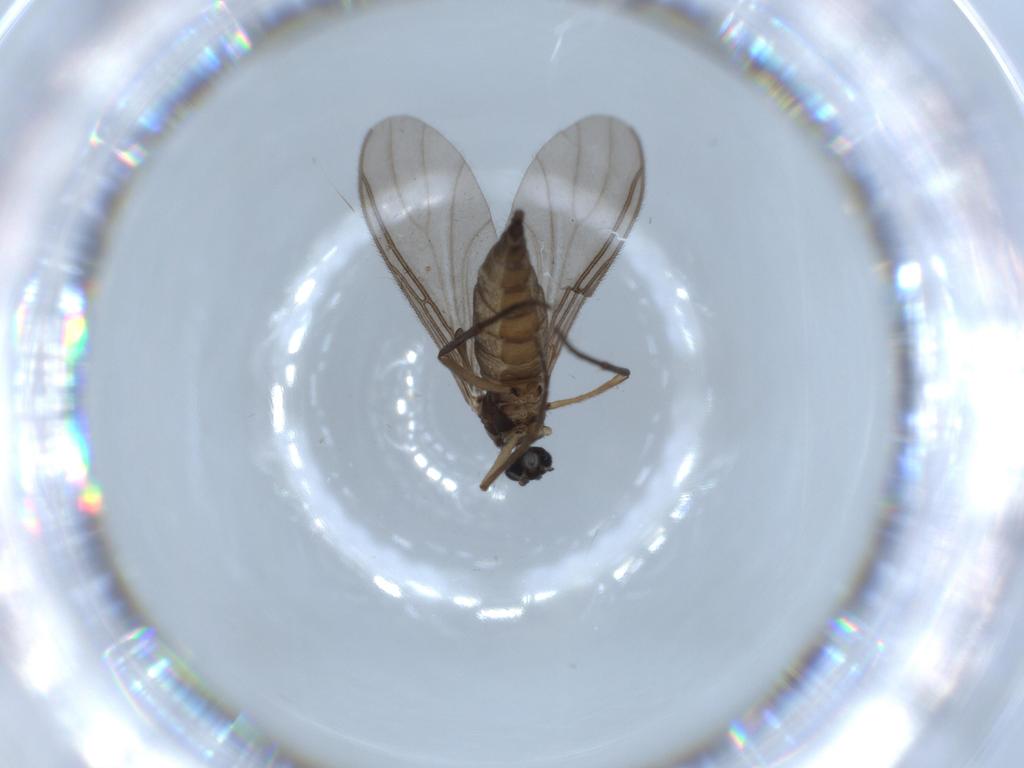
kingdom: Animalia
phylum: Arthropoda
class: Insecta
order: Diptera
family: Sciaridae
